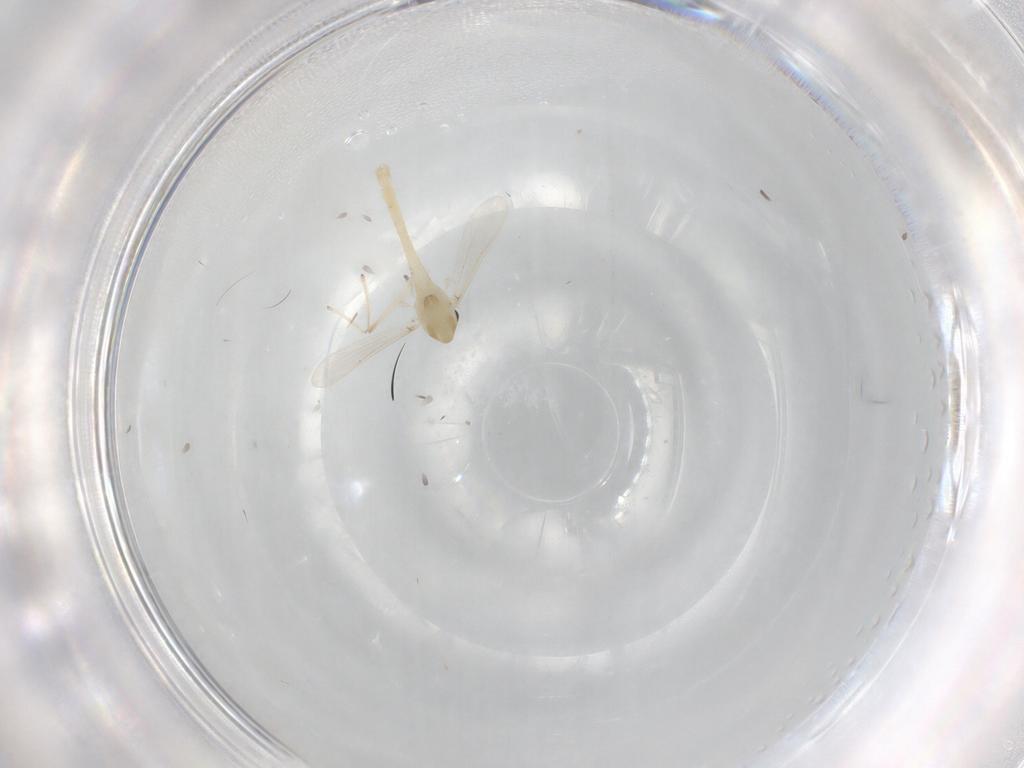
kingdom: Animalia
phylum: Arthropoda
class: Insecta
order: Diptera
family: Chironomidae
